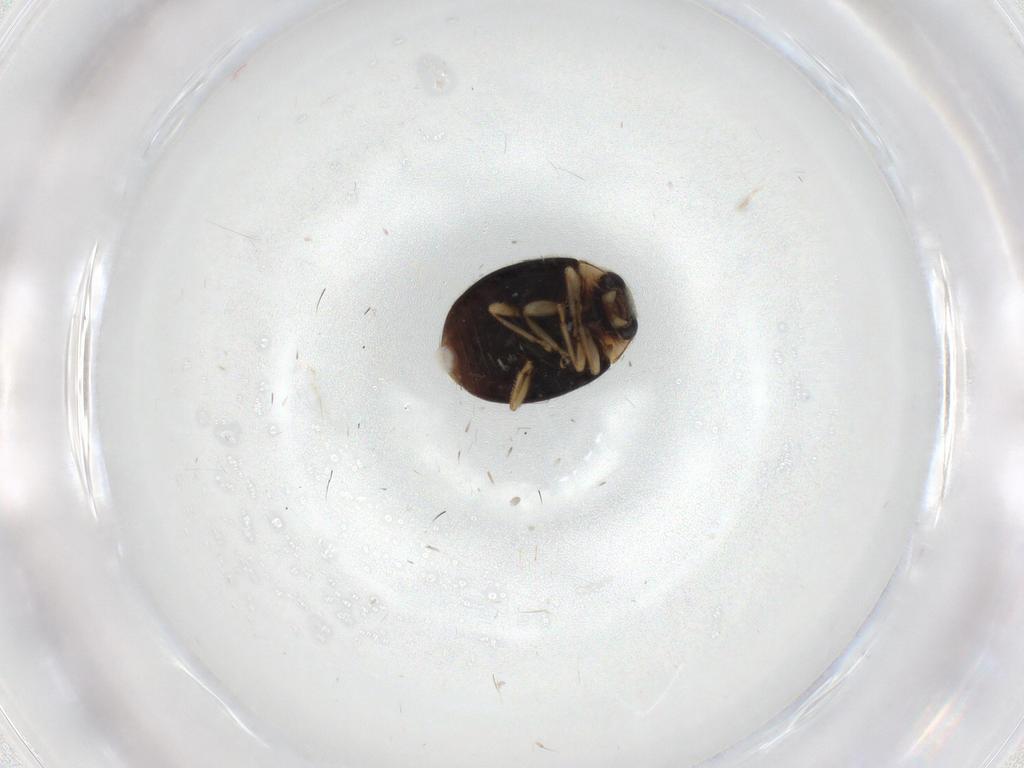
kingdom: Animalia
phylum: Arthropoda
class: Insecta
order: Coleoptera
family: Coccinellidae
